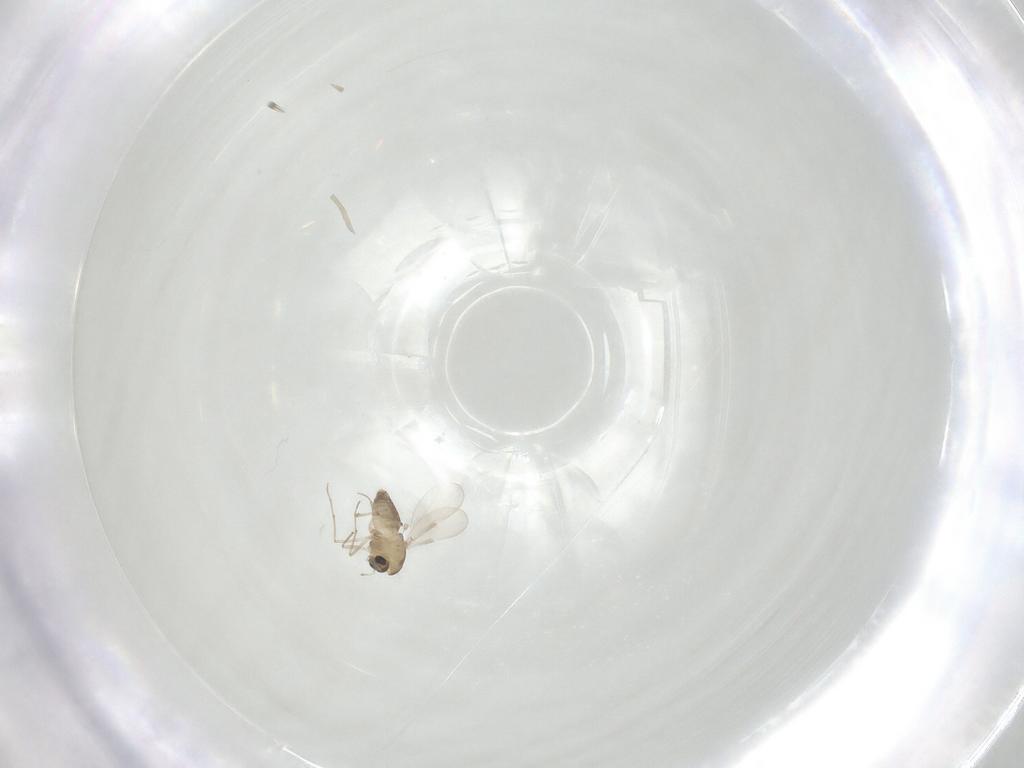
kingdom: Animalia
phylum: Arthropoda
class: Insecta
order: Diptera
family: Chironomidae
